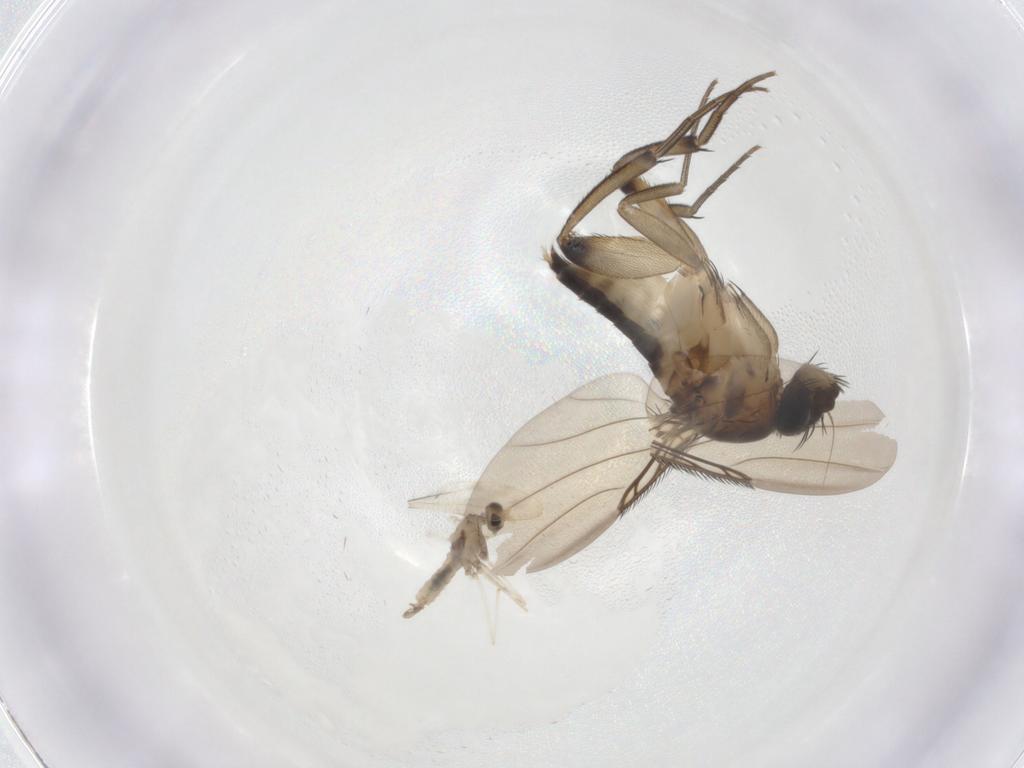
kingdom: Animalia
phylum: Arthropoda
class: Insecta
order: Diptera
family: Phoridae
